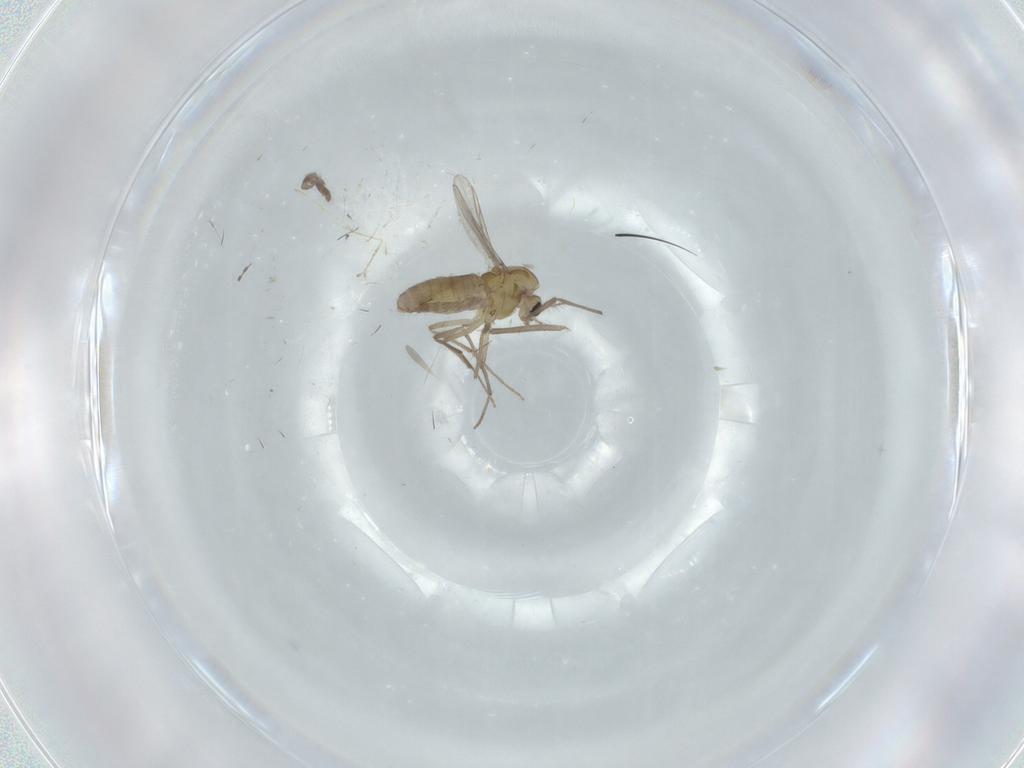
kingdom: Animalia
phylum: Arthropoda
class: Insecta
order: Diptera
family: Chironomidae
